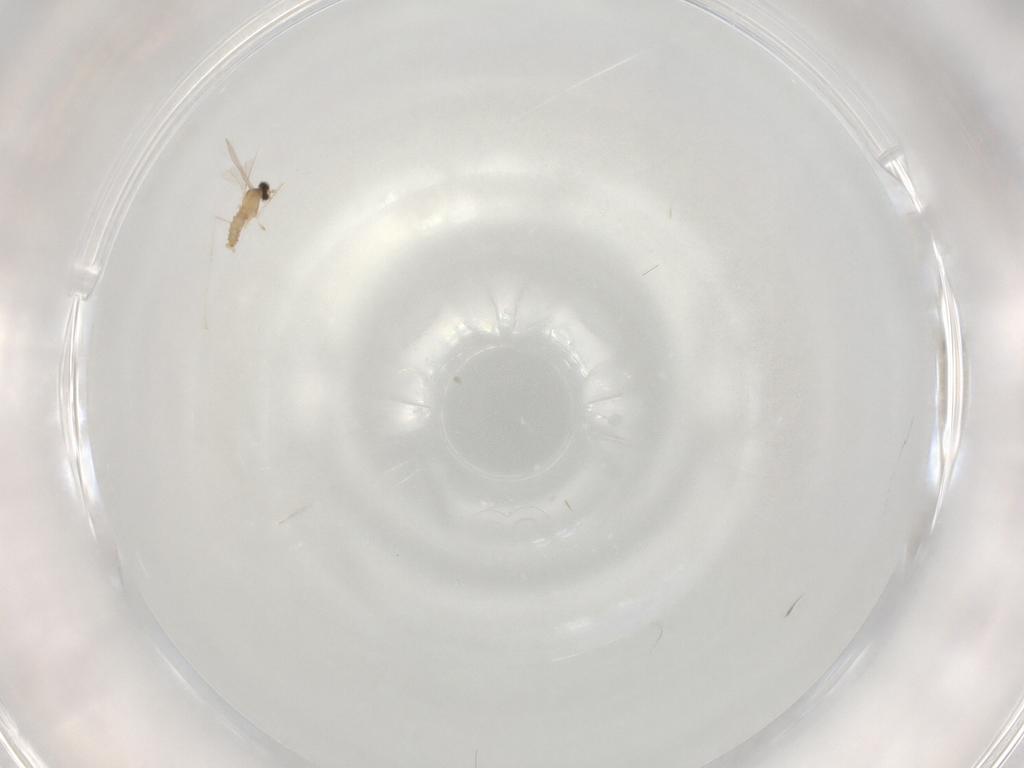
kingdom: Animalia
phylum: Arthropoda
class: Insecta
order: Diptera
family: Cecidomyiidae
